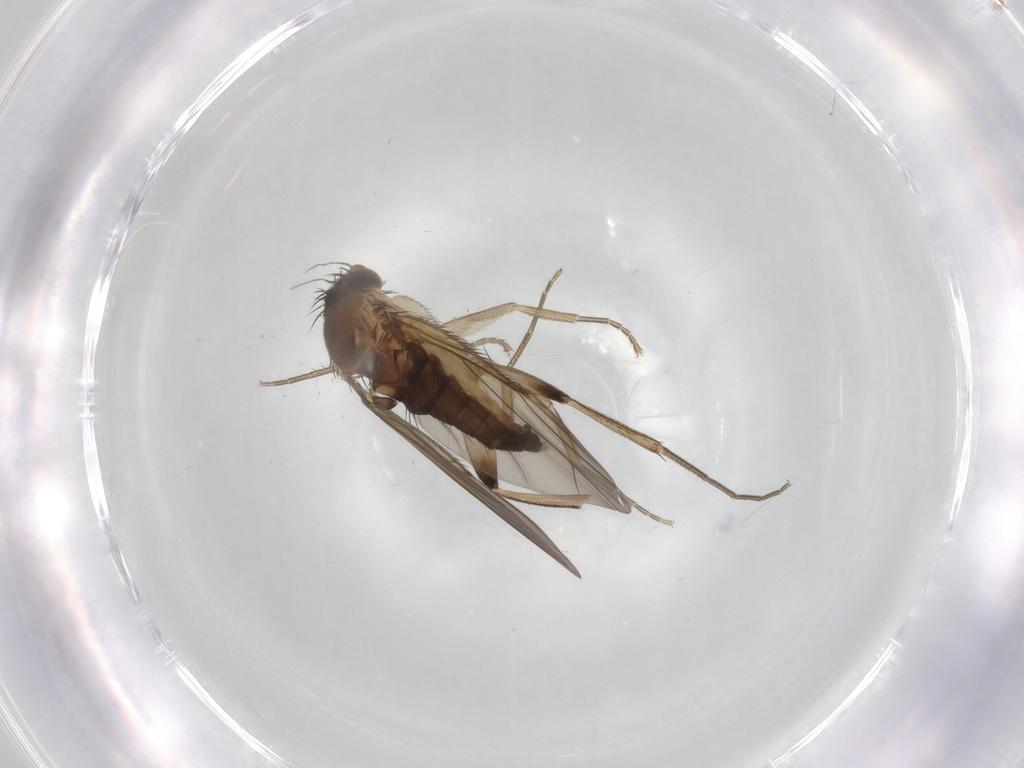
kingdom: Animalia
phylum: Arthropoda
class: Insecta
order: Diptera
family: Phoridae
